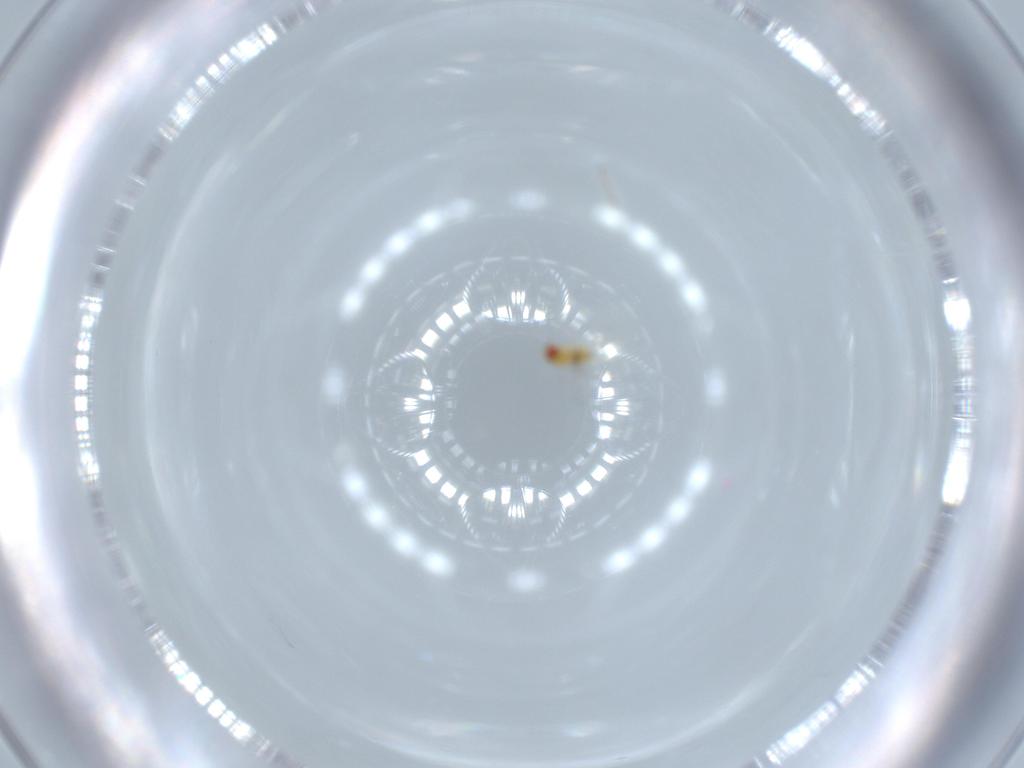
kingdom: Animalia
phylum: Arthropoda
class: Insecta
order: Hymenoptera
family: Trichogrammatidae
